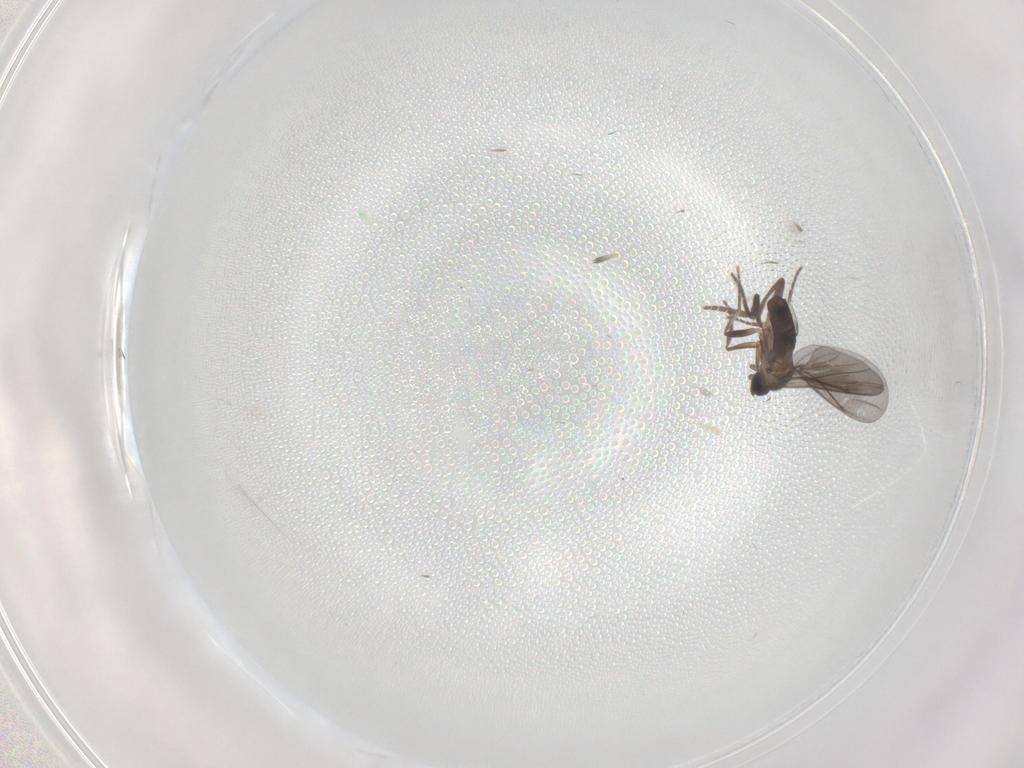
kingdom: Animalia
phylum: Arthropoda
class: Insecta
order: Diptera
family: Phoridae
